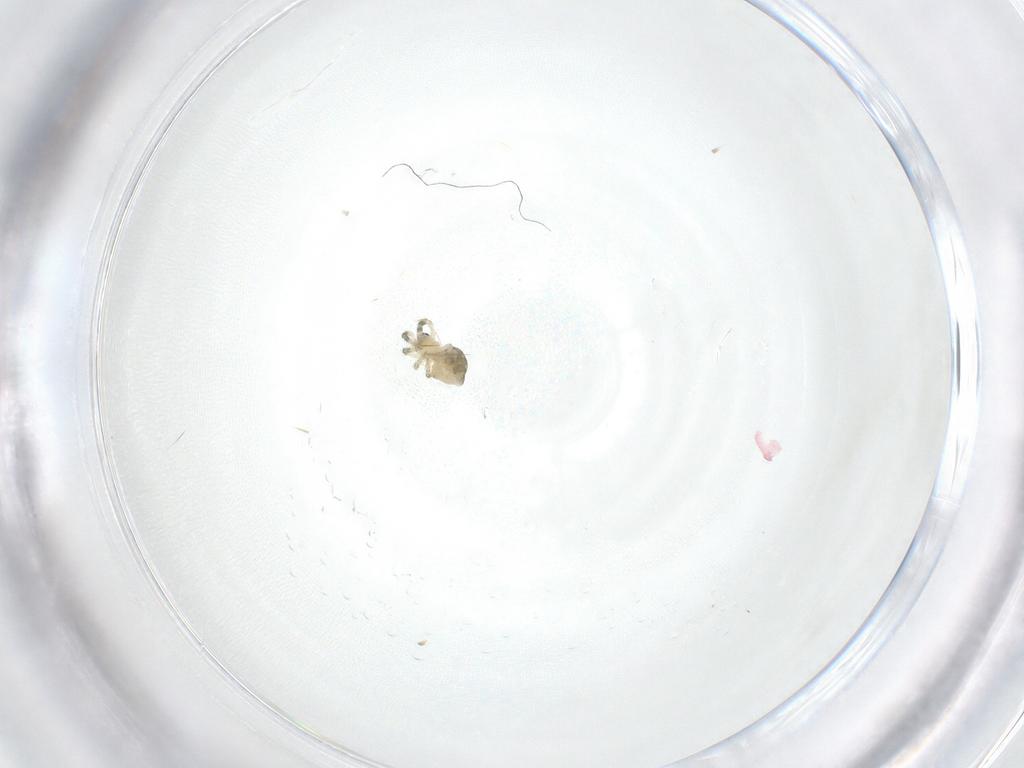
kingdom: Animalia
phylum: Arthropoda
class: Arachnida
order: Araneae
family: Mysmenidae
